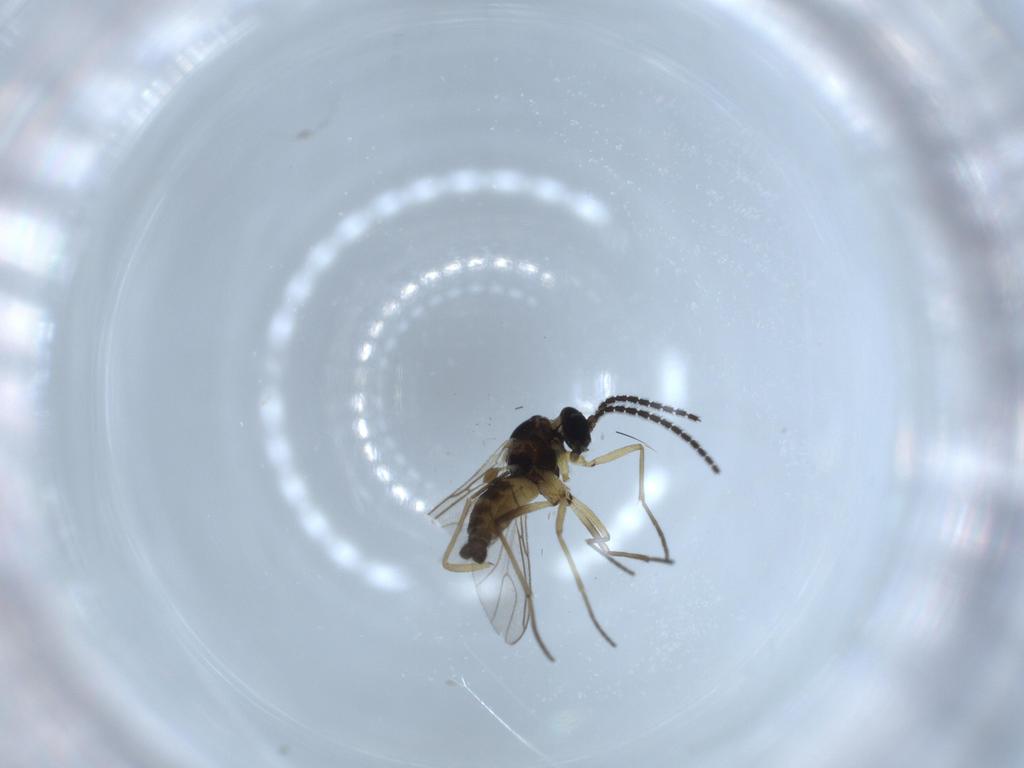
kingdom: Animalia
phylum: Arthropoda
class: Insecta
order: Diptera
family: Sciaridae
